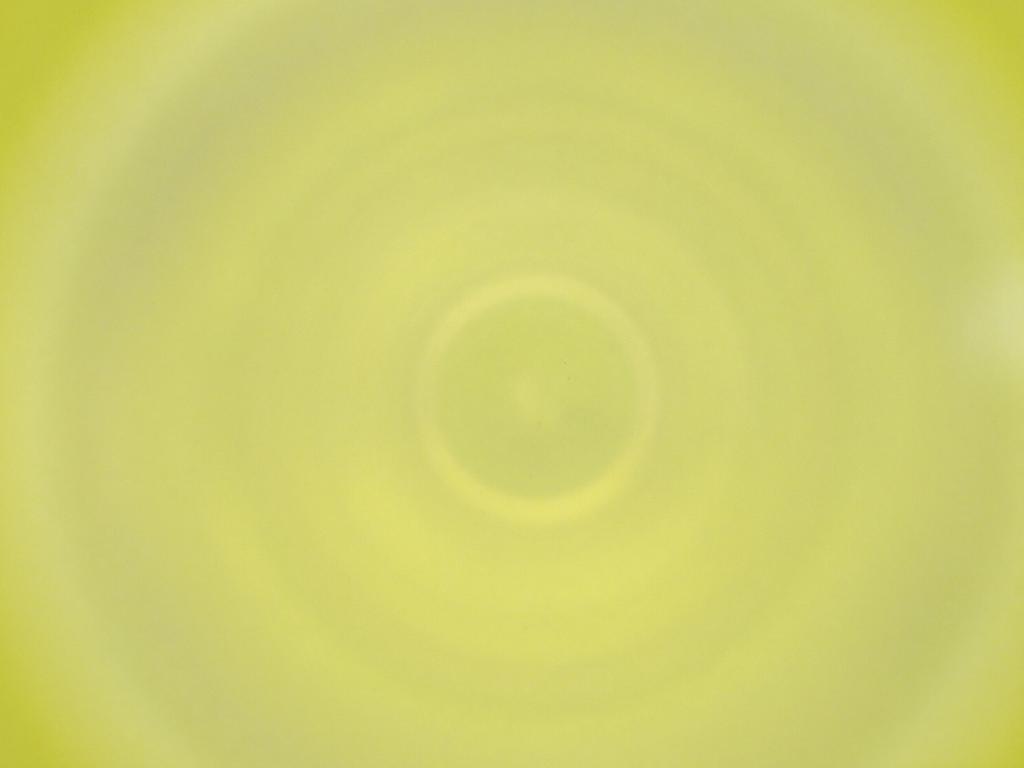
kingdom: Animalia
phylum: Arthropoda
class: Insecta
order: Diptera
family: Cecidomyiidae
